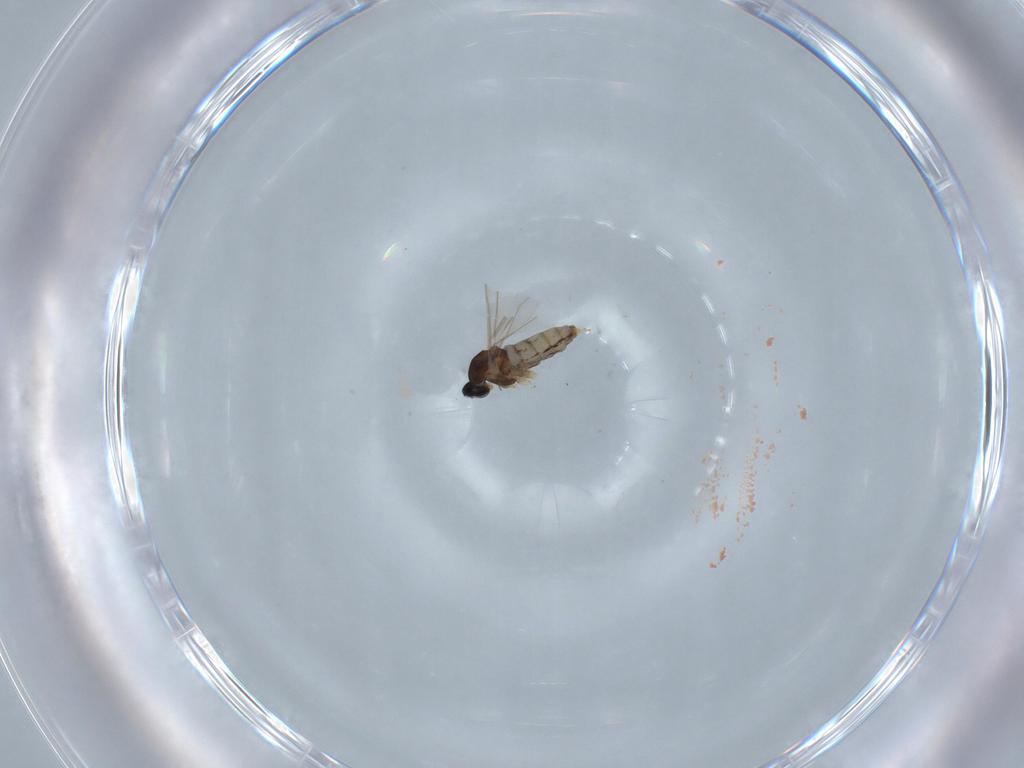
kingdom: Animalia
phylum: Arthropoda
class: Insecta
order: Diptera
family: Cecidomyiidae
